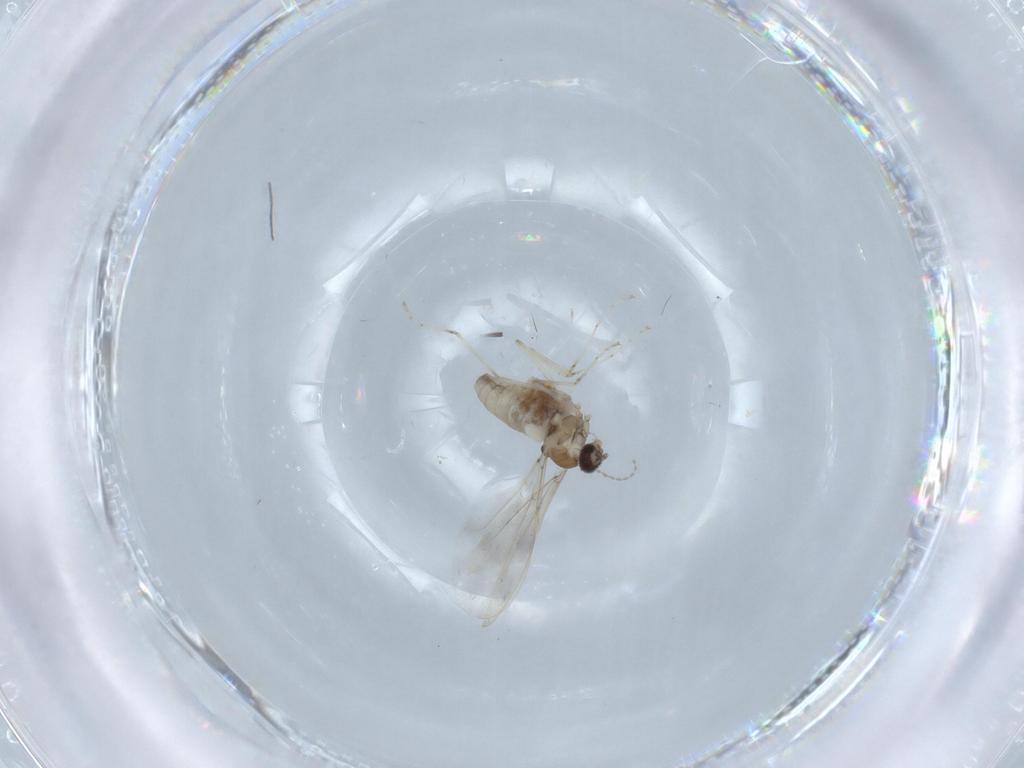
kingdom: Animalia
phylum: Arthropoda
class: Insecta
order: Diptera
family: Cecidomyiidae
